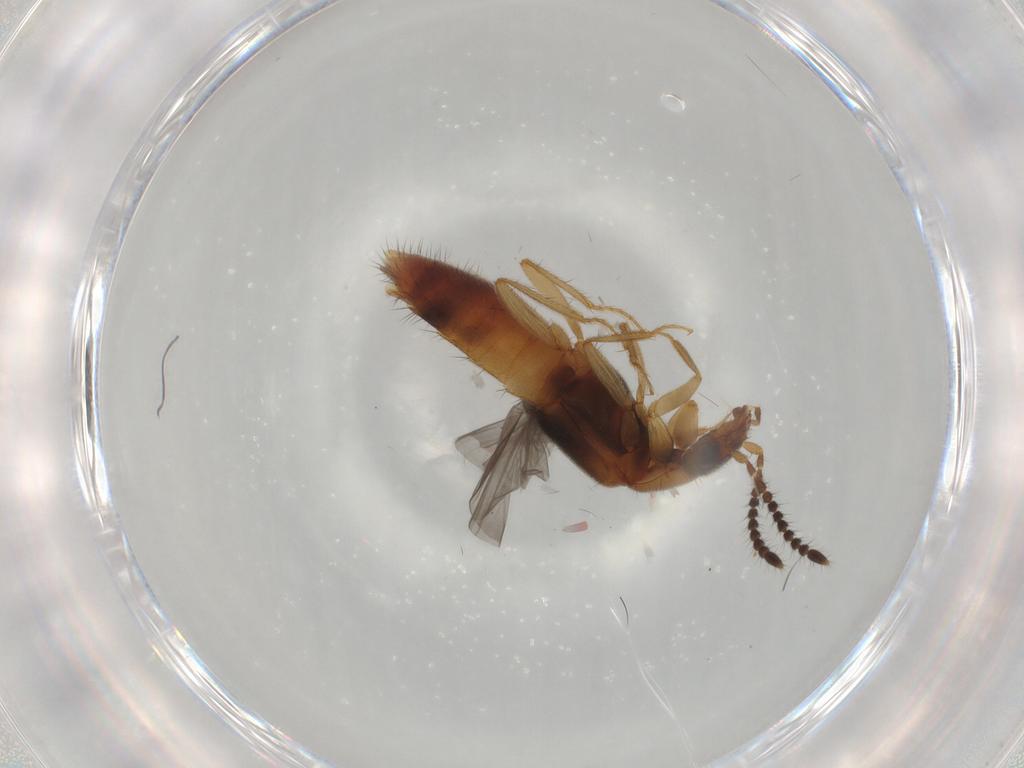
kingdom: Animalia
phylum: Arthropoda
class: Insecta
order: Coleoptera
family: Staphylinidae
